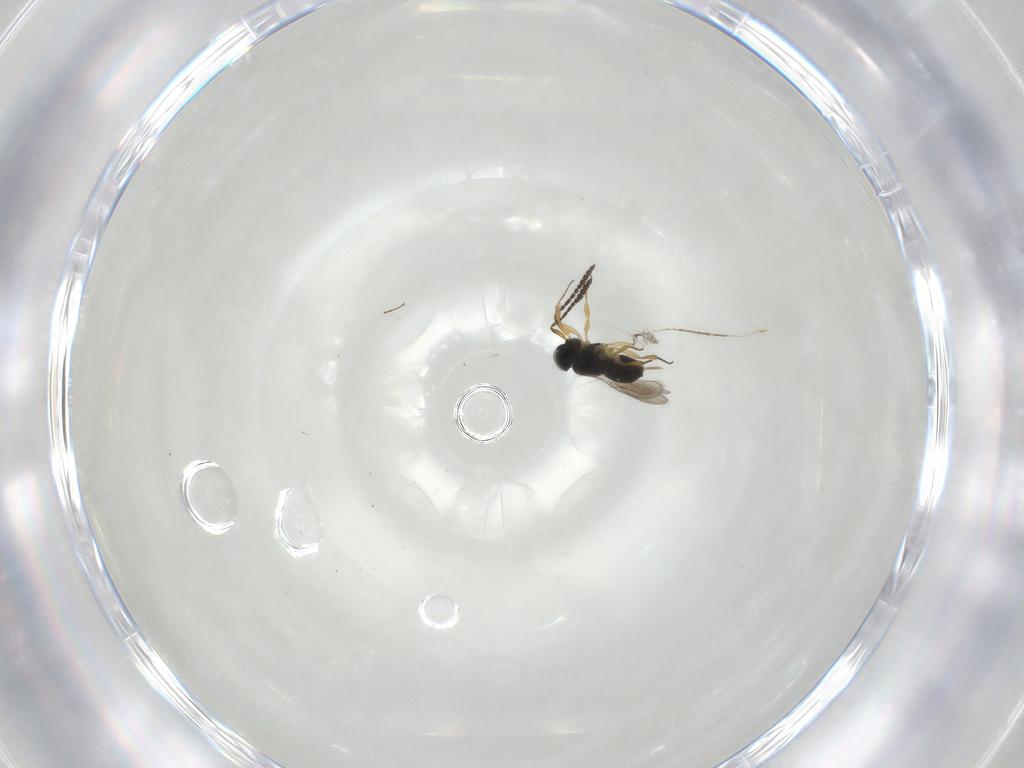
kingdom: Animalia
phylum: Arthropoda
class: Insecta
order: Hymenoptera
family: Scelionidae
